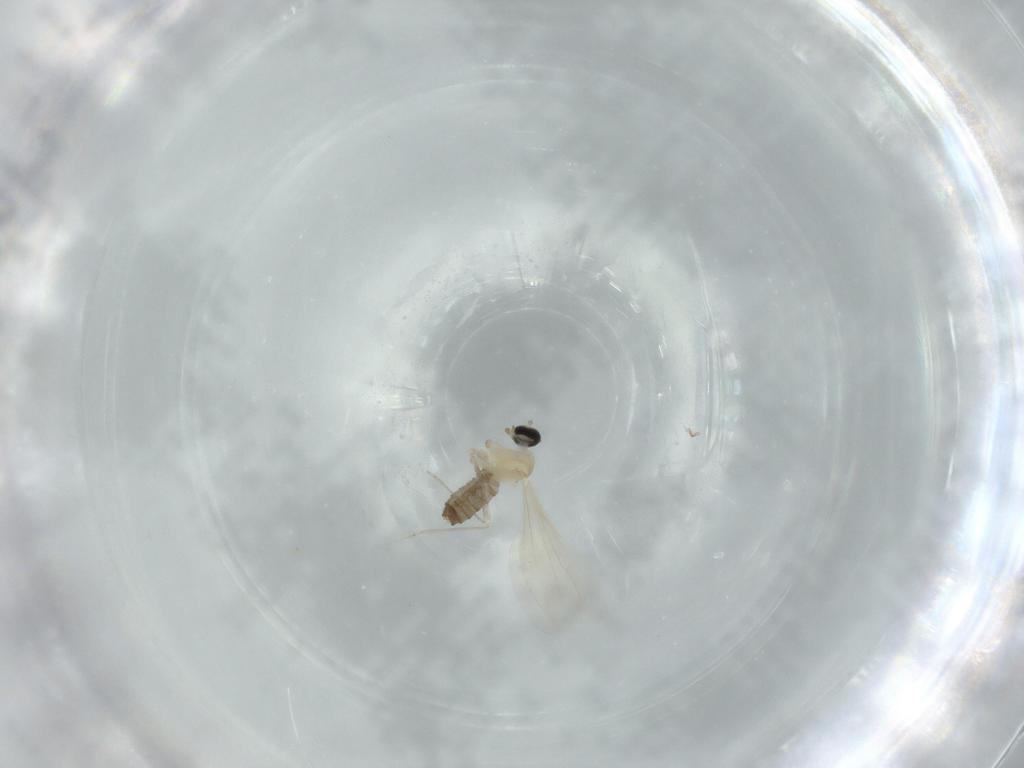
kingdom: Animalia
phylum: Arthropoda
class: Insecta
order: Diptera
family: Cecidomyiidae
